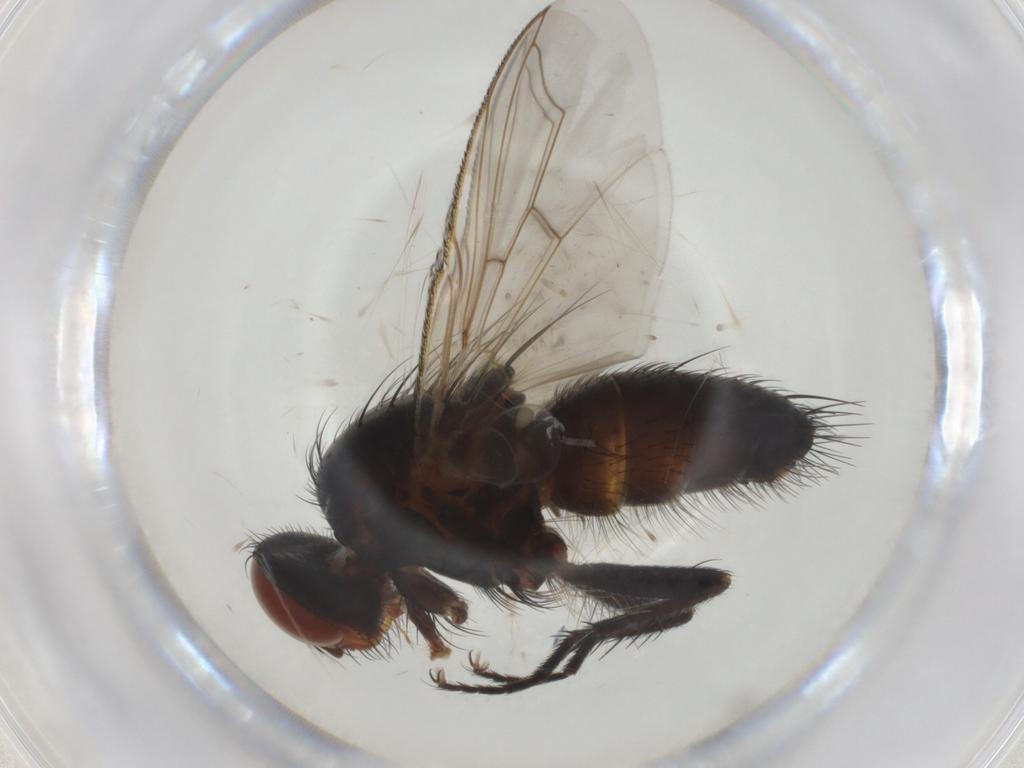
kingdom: Animalia
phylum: Arthropoda
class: Insecta
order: Diptera
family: Tachinidae
